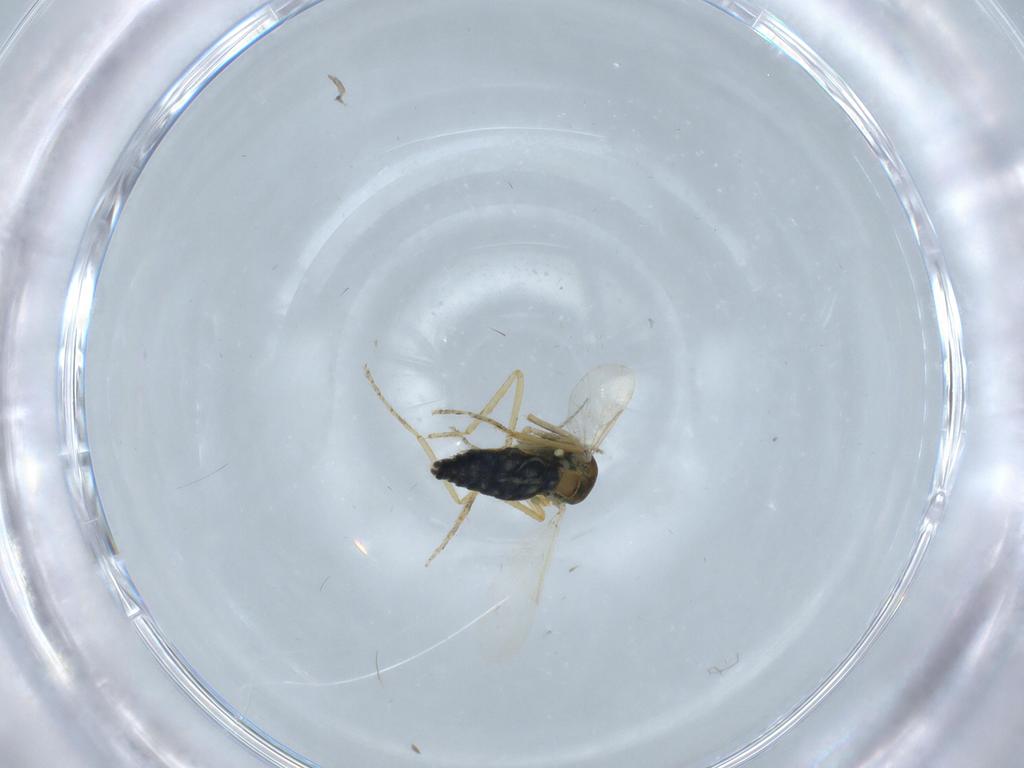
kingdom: Animalia
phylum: Arthropoda
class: Insecta
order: Diptera
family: Ceratopogonidae
